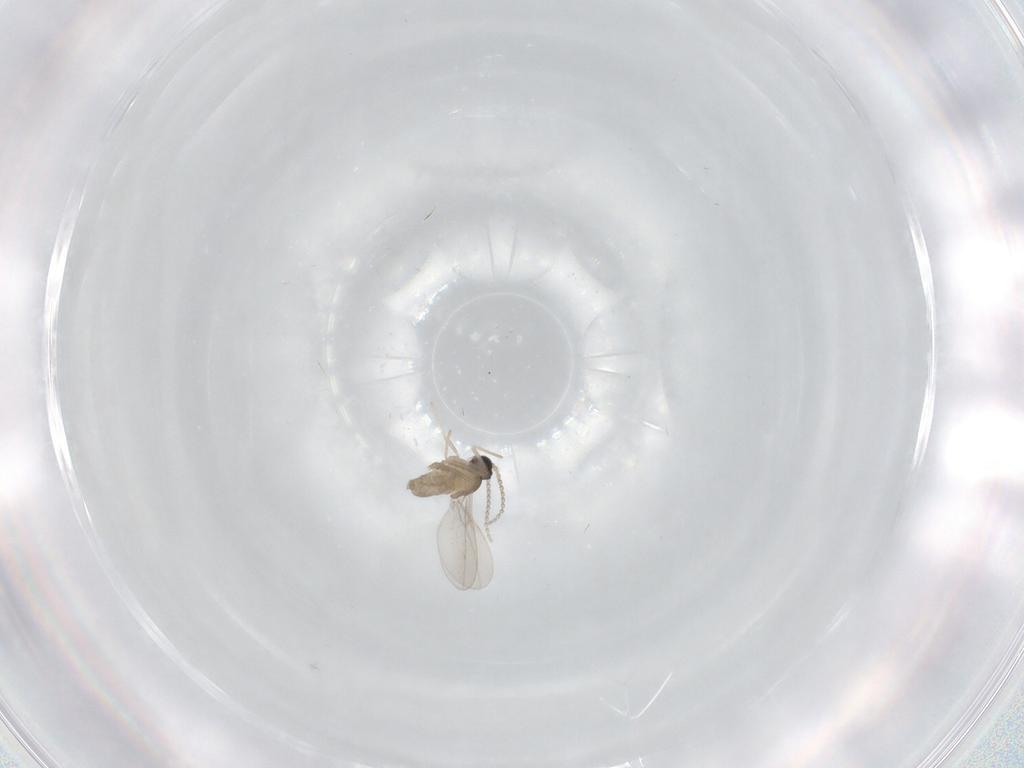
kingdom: Animalia
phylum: Arthropoda
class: Insecta
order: Diptera
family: Cecidomyiidae
